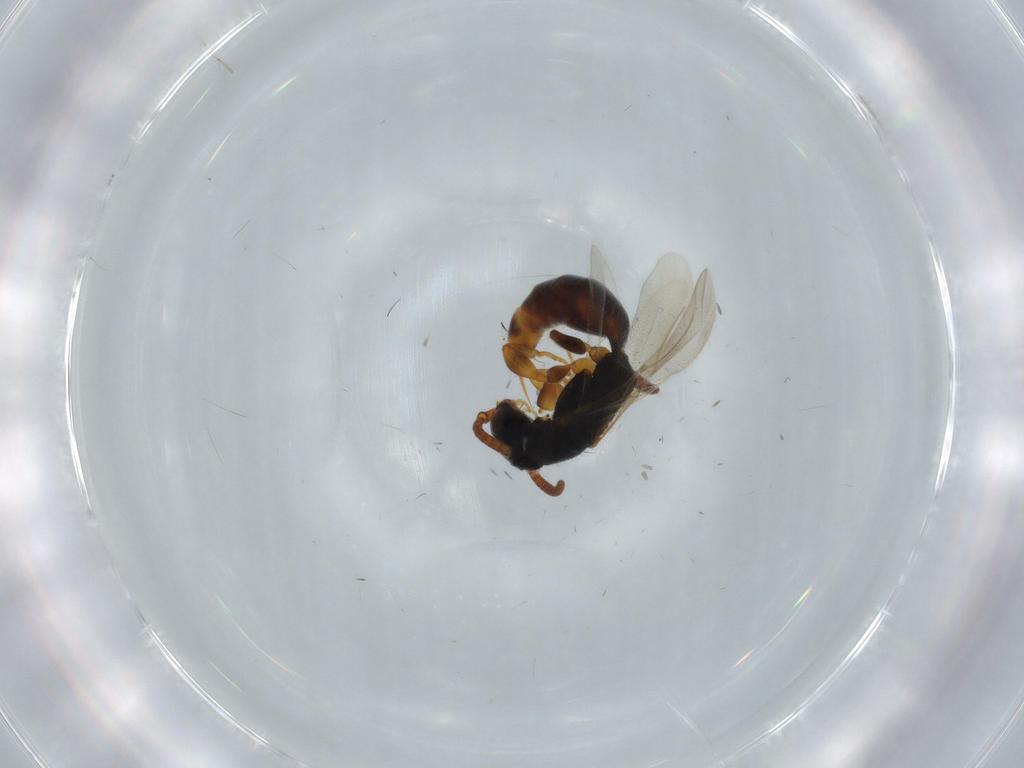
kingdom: Animalia
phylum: Arthropoda
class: Insecta
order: Hymenoptera
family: Bethylidae
